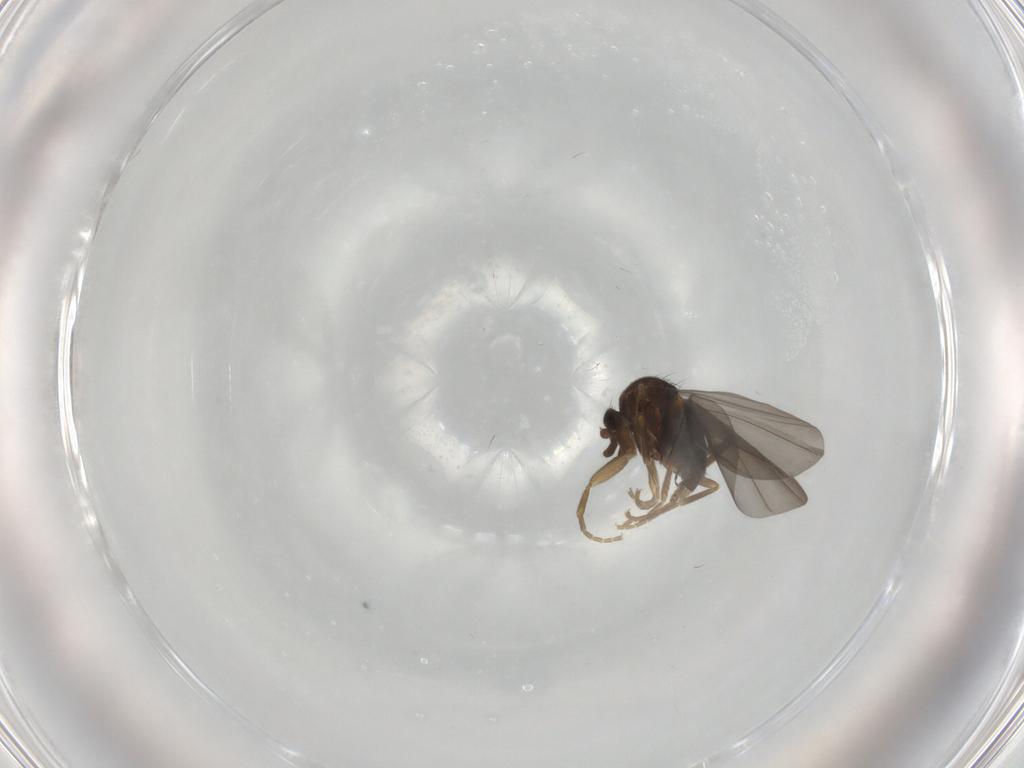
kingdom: Animalia
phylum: Arthropoda
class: Insecta
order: Diptera
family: Phoridae
